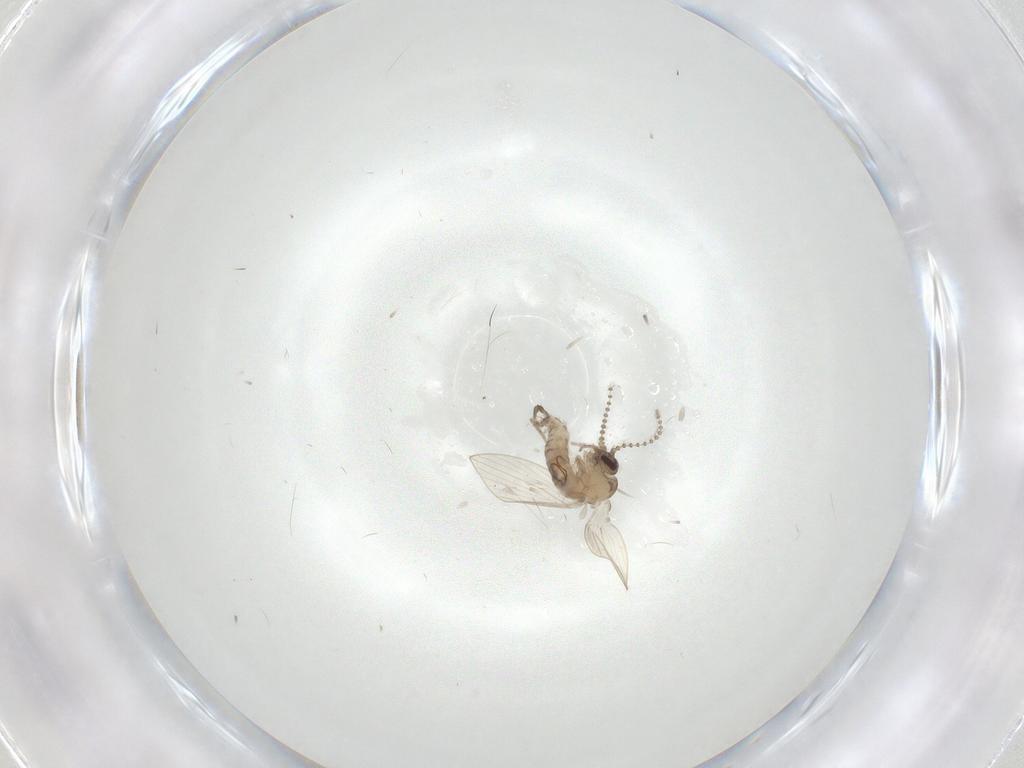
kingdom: Animalia
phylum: Arthropoda
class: Insecta
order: Diptera
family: Psychodidae
